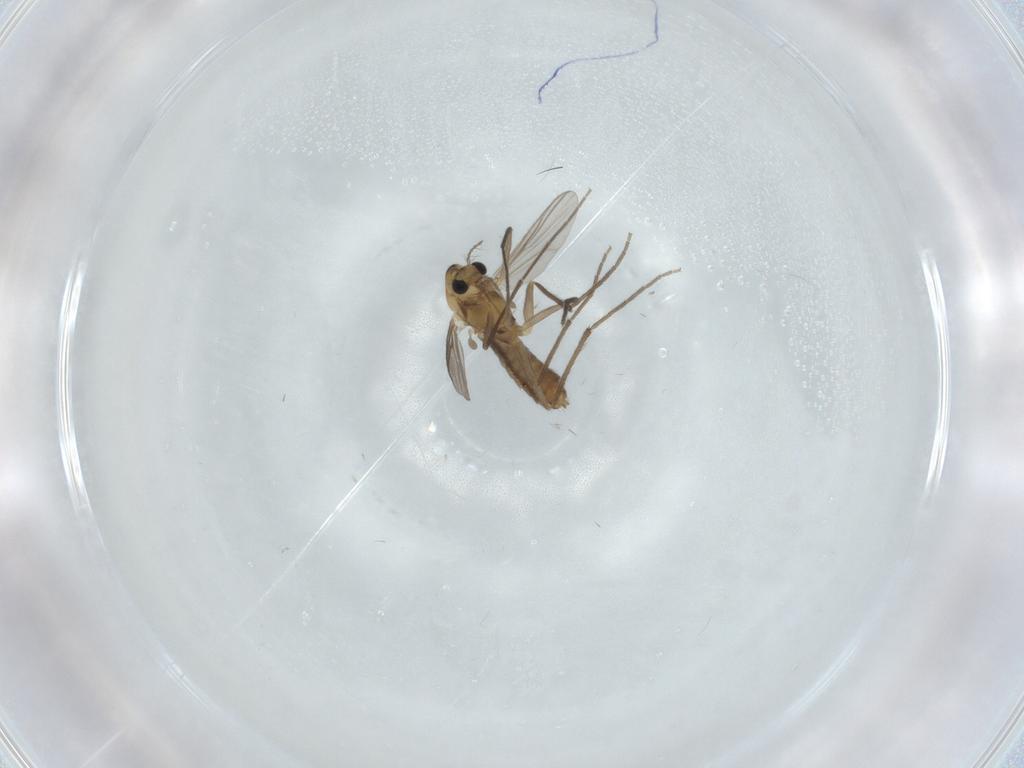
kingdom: Animalia
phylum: Arthropoda
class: Insecta
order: Diptera
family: Chironomidae
